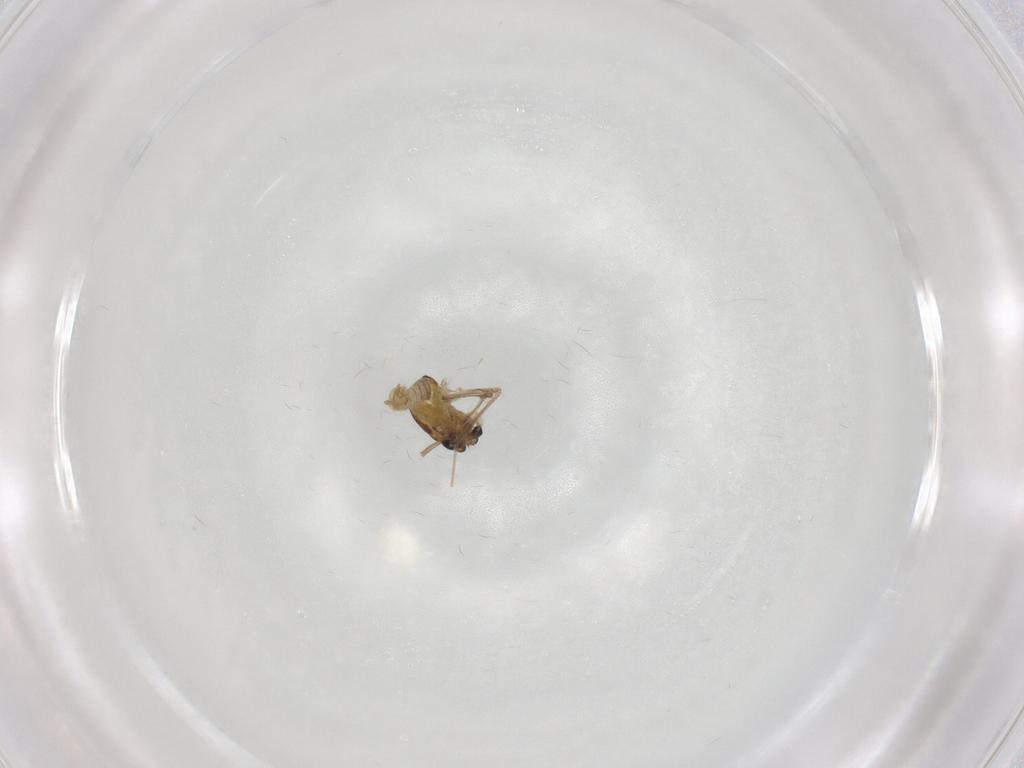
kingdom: Animalia
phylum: Arthropoda
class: Insecta
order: Diptera
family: Chironomidae
